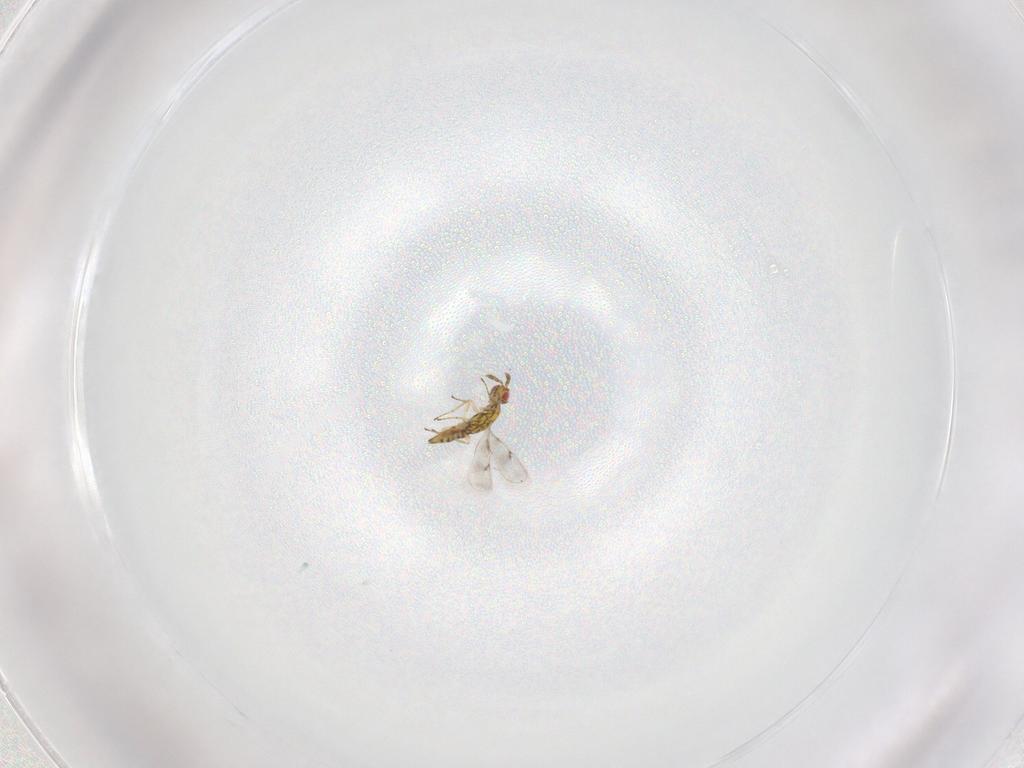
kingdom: Animalia
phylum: Arthropoda
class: Insecta
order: Hymenoptera
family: Eulophidae
